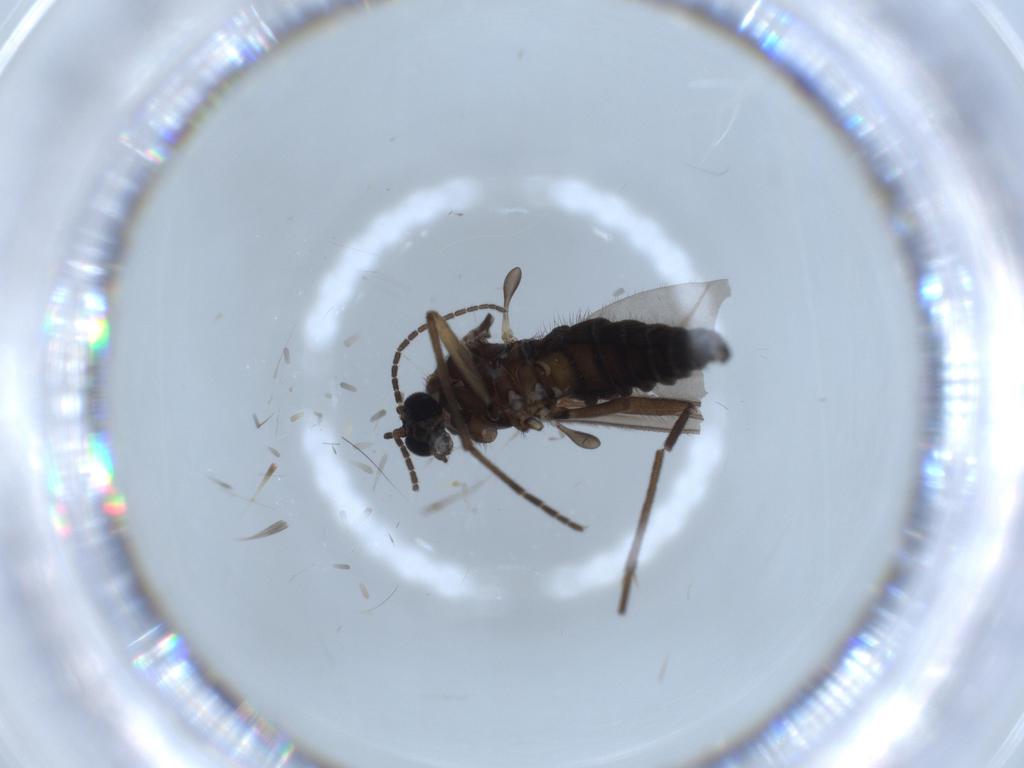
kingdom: Animalia
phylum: Arthropoda
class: Insecta
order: Diptera
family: Sciaridae
